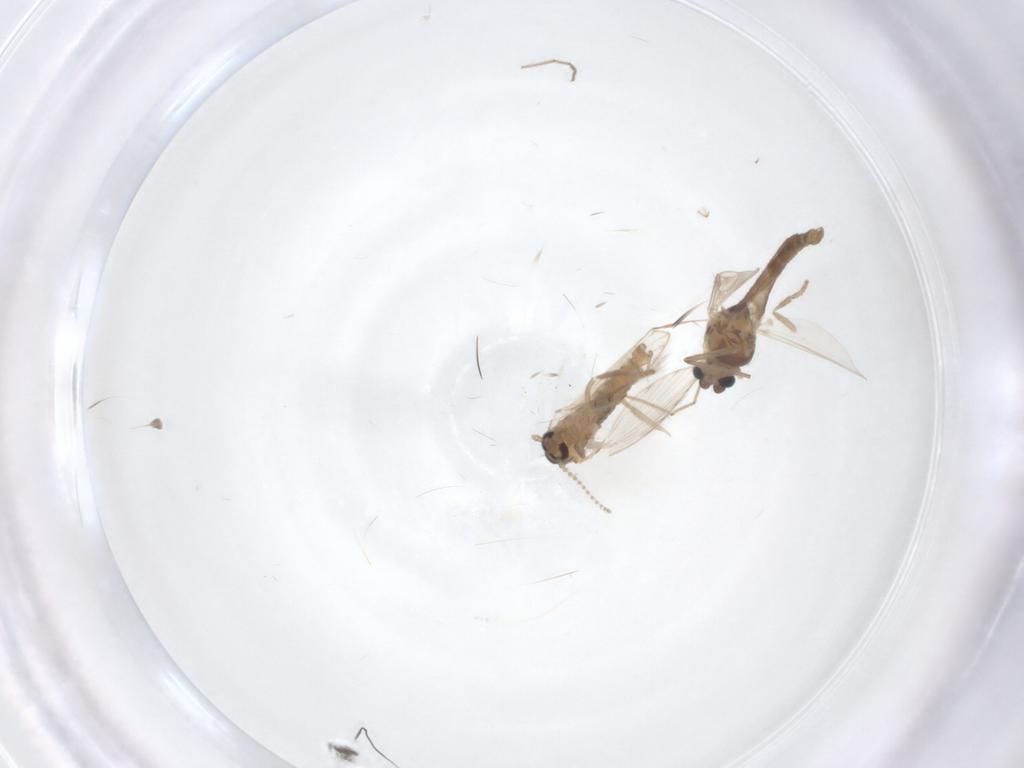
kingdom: Animalia
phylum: Arthropoda
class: Insecta
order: Diptera
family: Chironomidae
